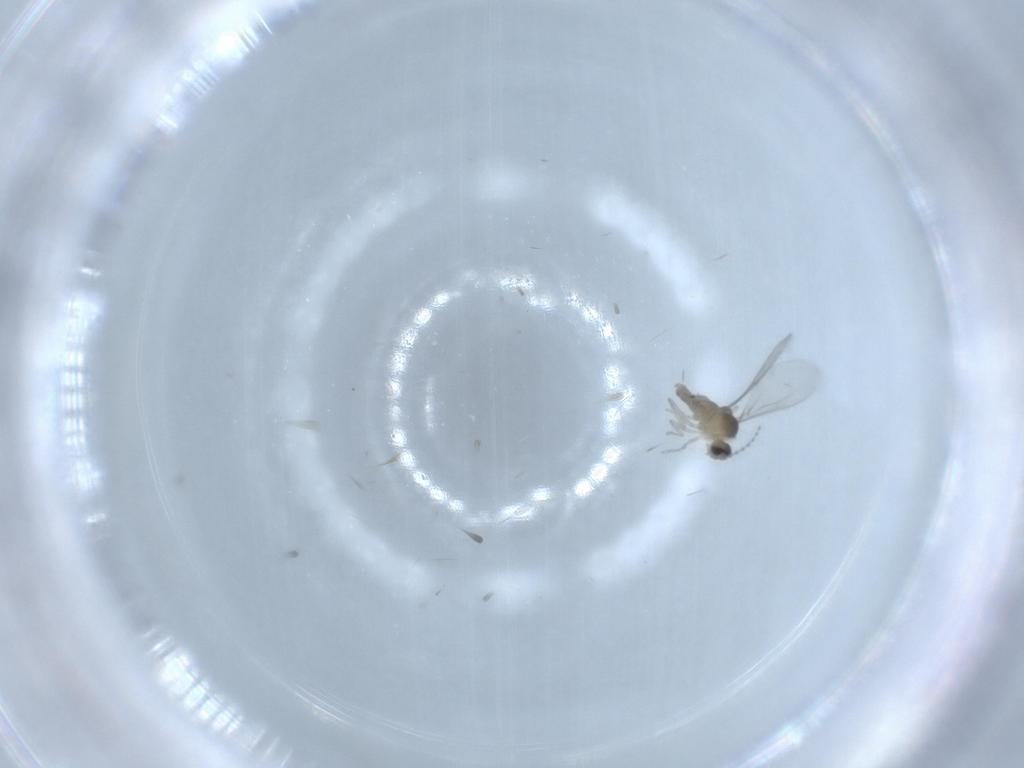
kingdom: Animalia
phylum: Arthropoda
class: Insecta
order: Diptera
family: Cecidomyiidae
